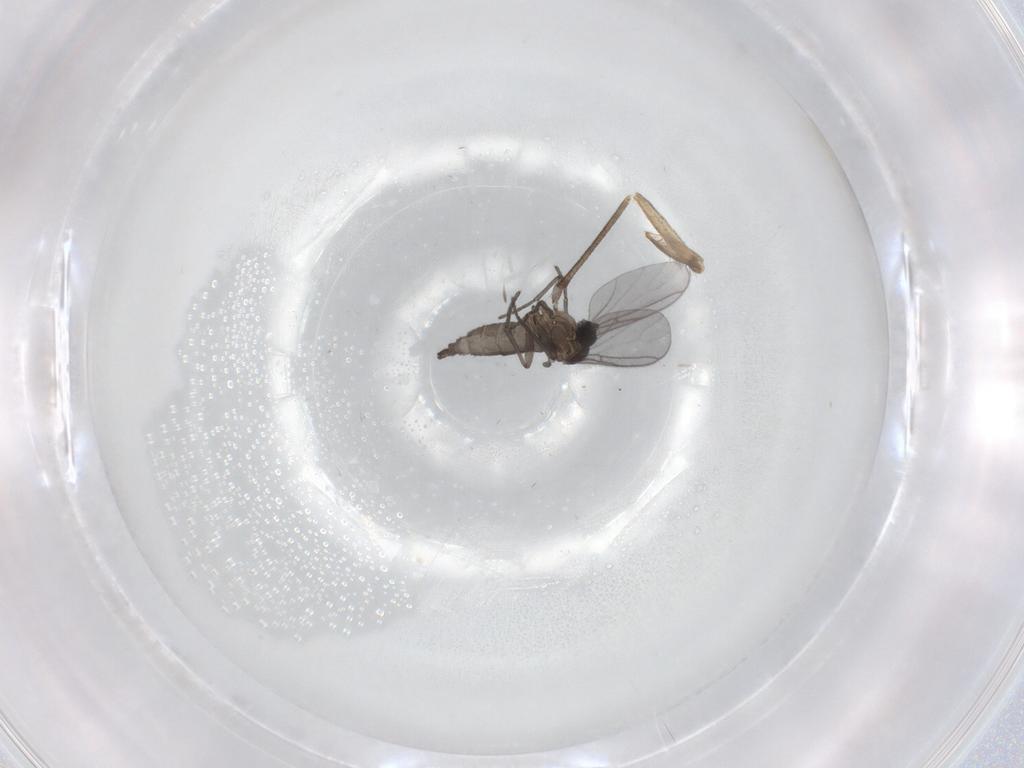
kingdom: Animalia
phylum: Arthropoda
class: Insecta
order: Diptera
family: Cecidomyiidae
